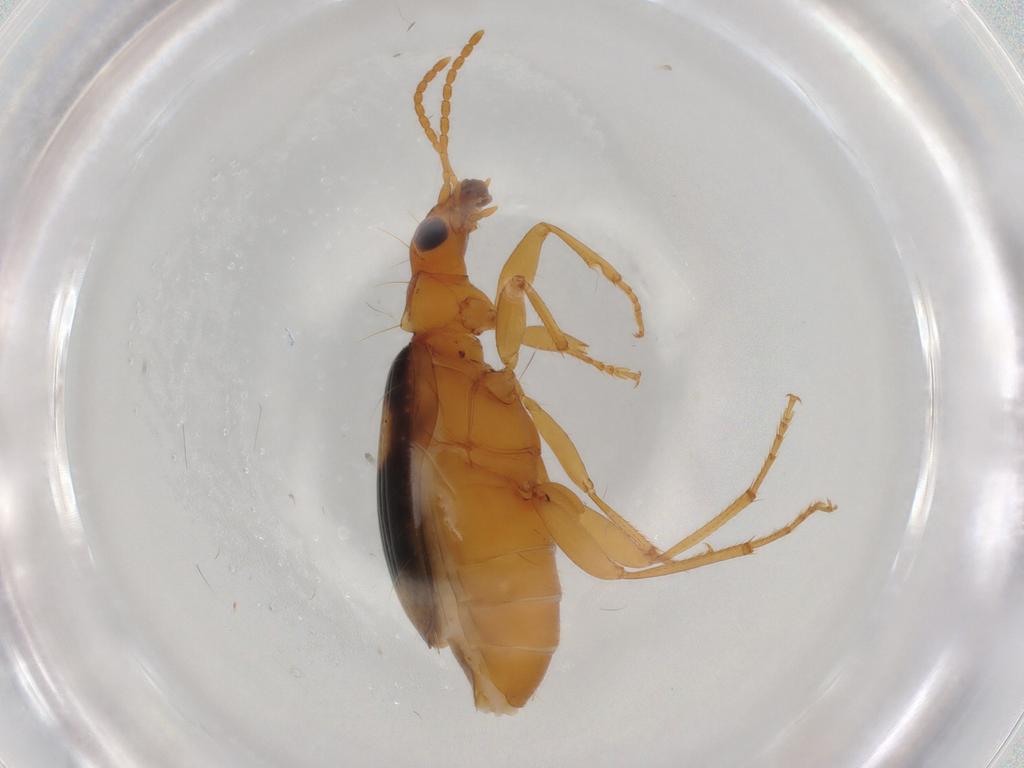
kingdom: Animalia
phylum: Arthropoda
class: Insecta
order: Coleoptera
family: Carabidae
